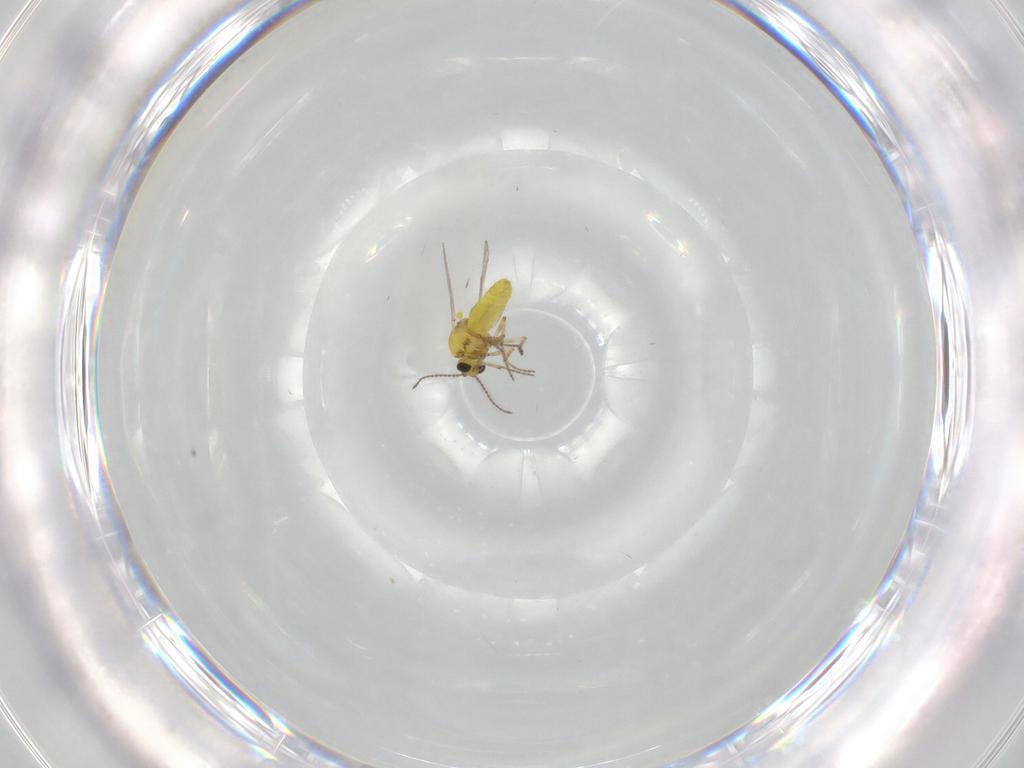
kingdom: Animalia
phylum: Arthropoda
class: Insecta
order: Diptera
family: Ceratopogonidae
